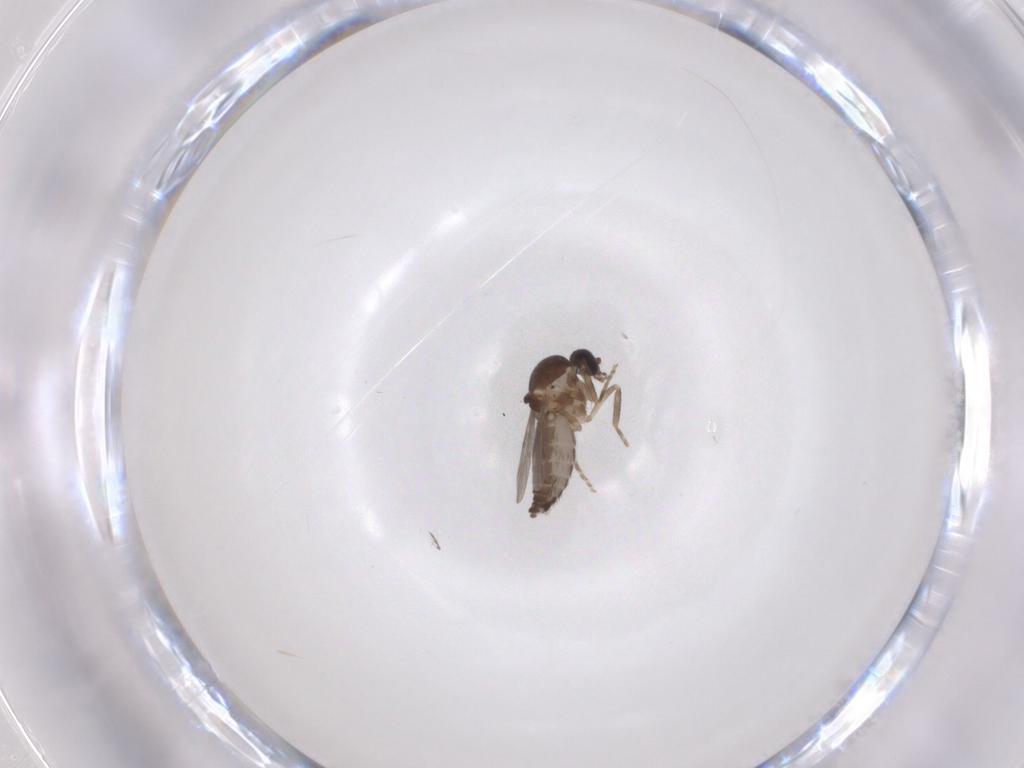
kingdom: Animalia
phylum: Arthropoda
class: Insecta
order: Diptera
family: Ceratopogonidae
